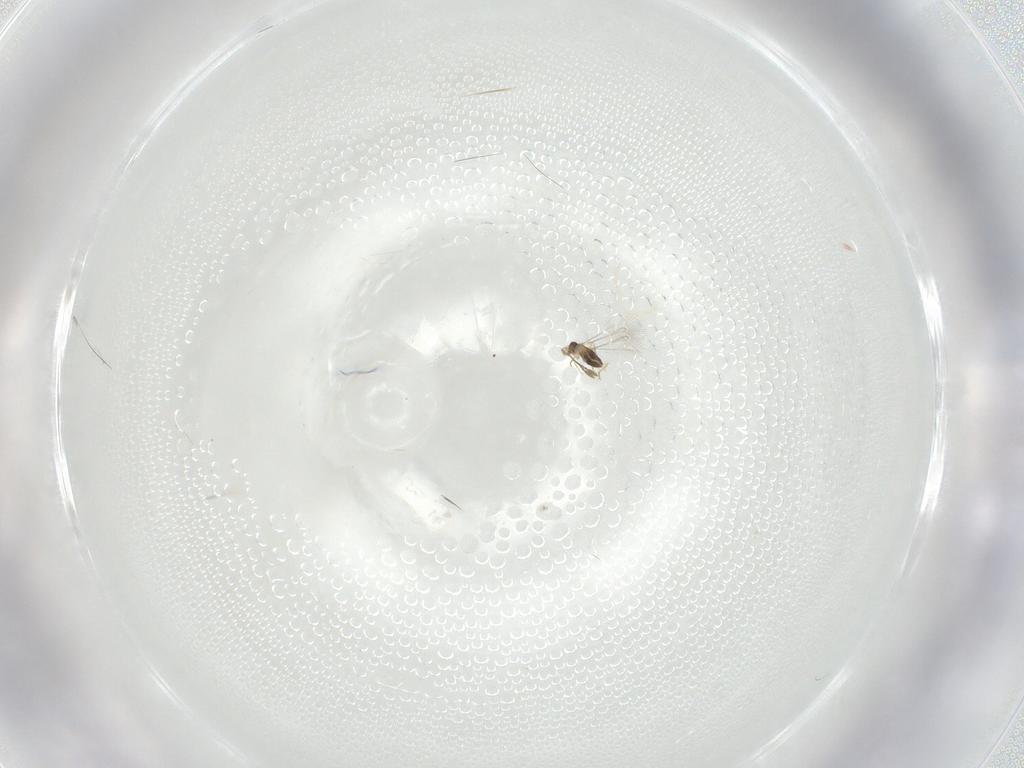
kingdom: Animalia
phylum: Arthropoda
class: Insecta
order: Hymenoptera
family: Formicidae
